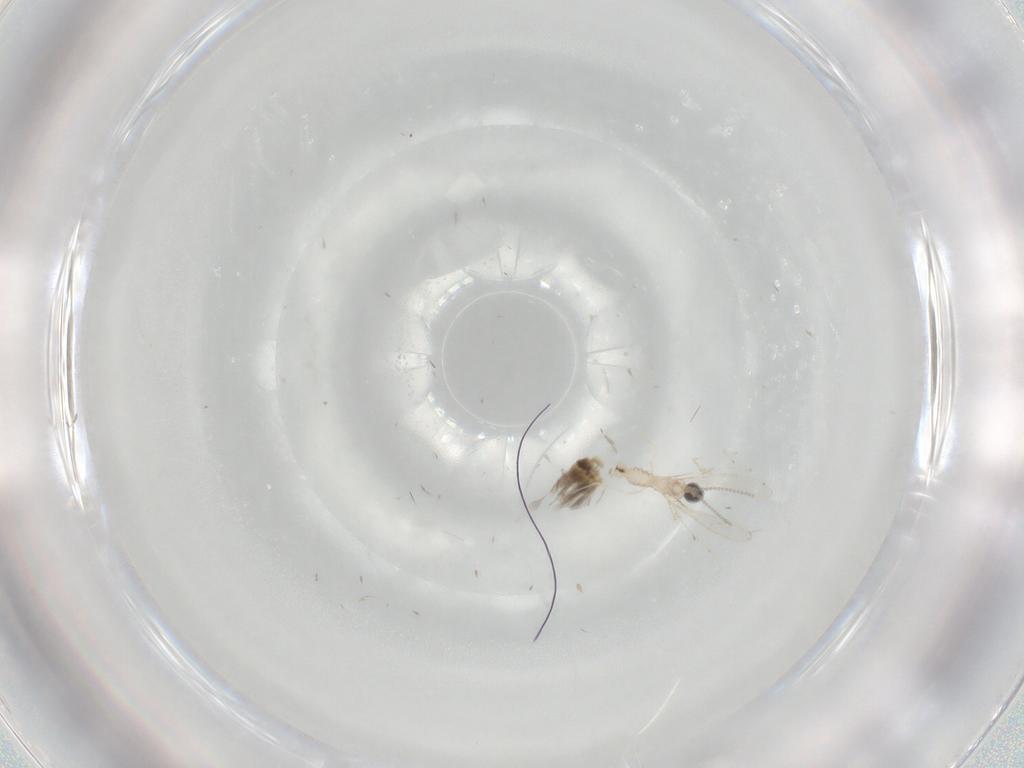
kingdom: Animalia
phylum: Arthropoda
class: Insecta
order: Diptera
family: Cecidomyiidae
